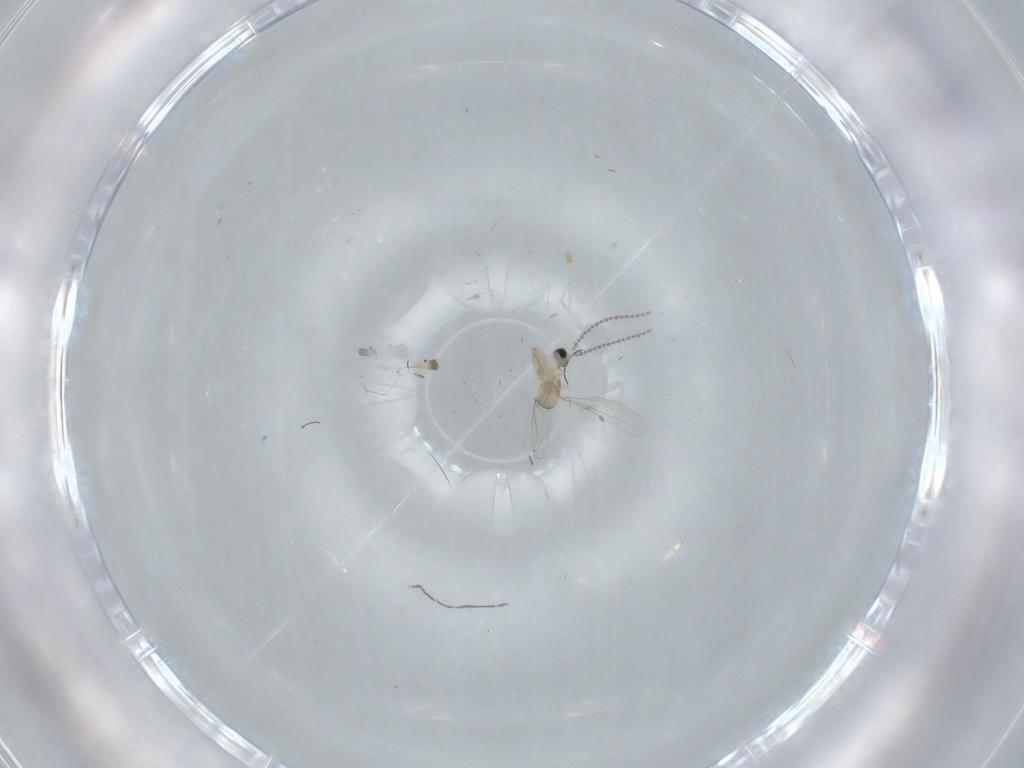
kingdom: Animalia
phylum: Arthropoda
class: Insecta
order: Diptera
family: Cecidomyiidae
